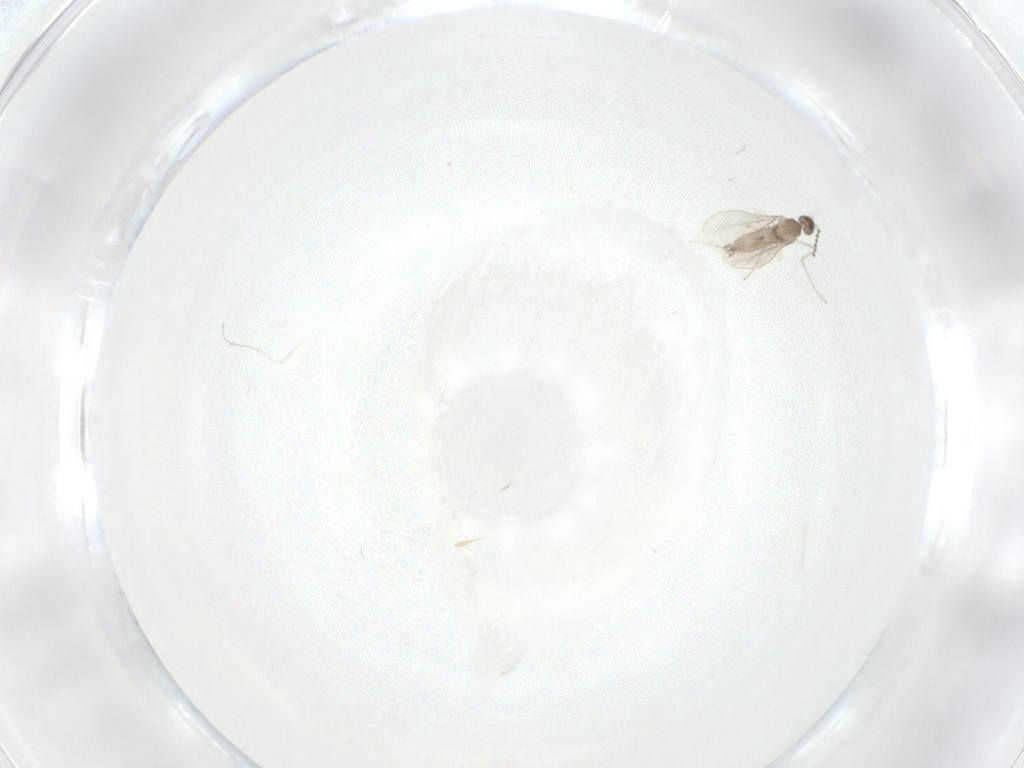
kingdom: Animalia
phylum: Arthropoda
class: Insecta
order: Diptera
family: Cecidomyiidae
